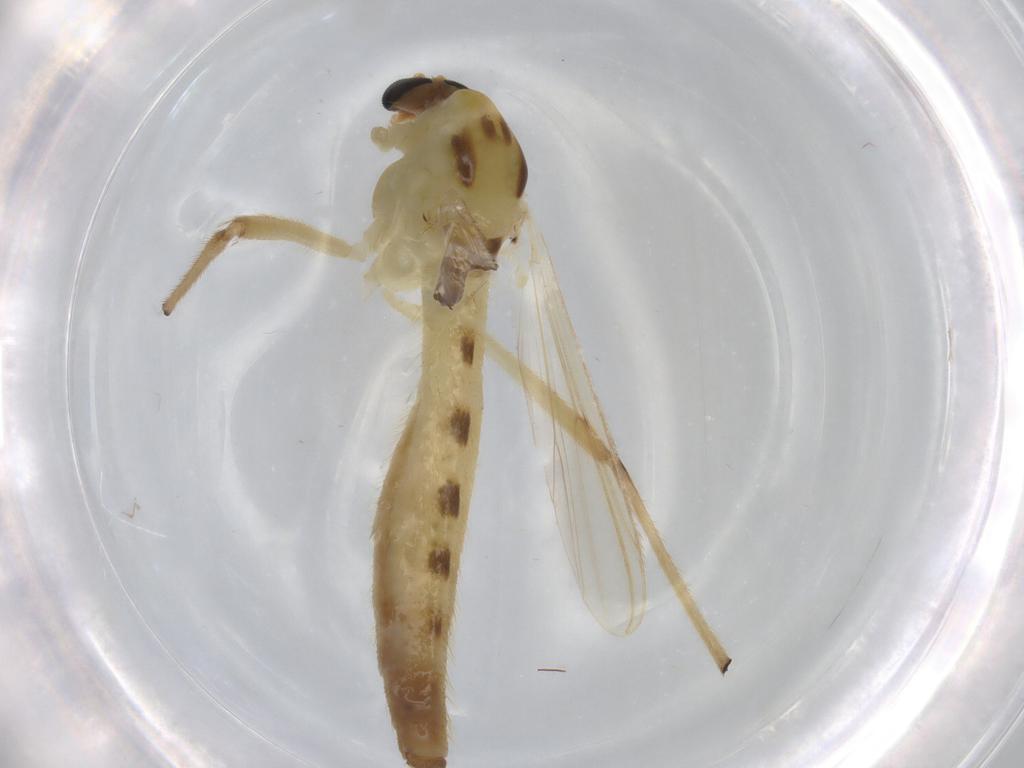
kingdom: Animalia
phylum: Arthropoda
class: Insecta
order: Diptera
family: Chironomidae
